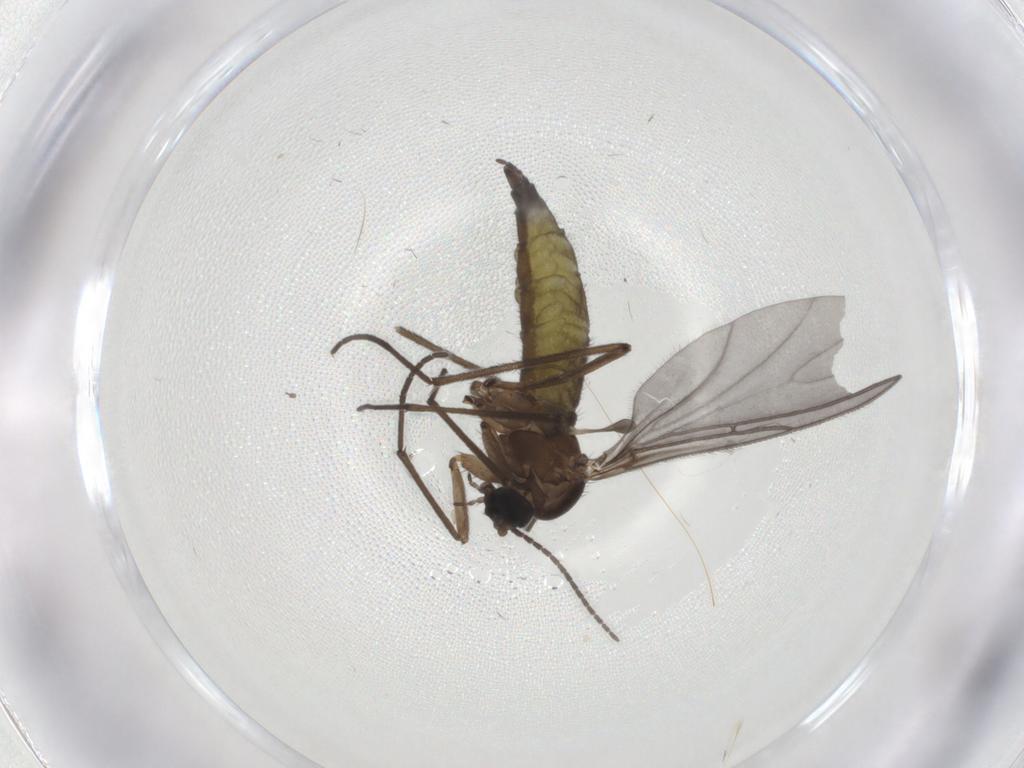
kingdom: Animalia
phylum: Arthropoda
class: Insecta
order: Diptera
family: Sciaridae
